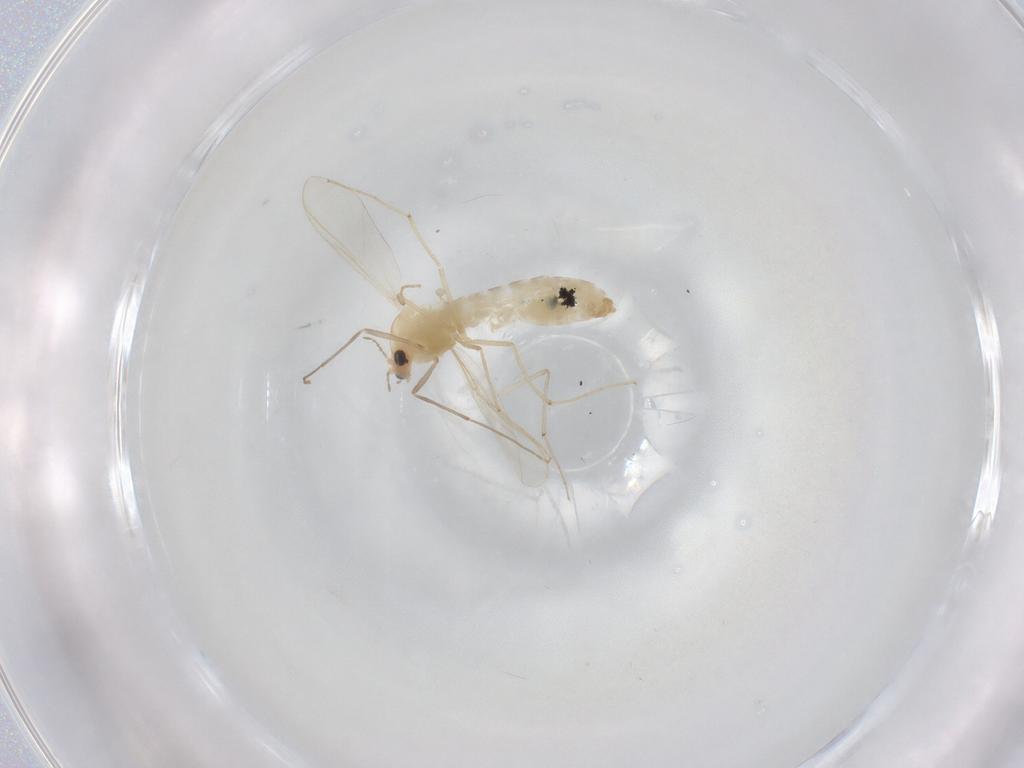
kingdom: Animalia
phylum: Arthropoda
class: Insecta
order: Diptera
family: Chironomidae
